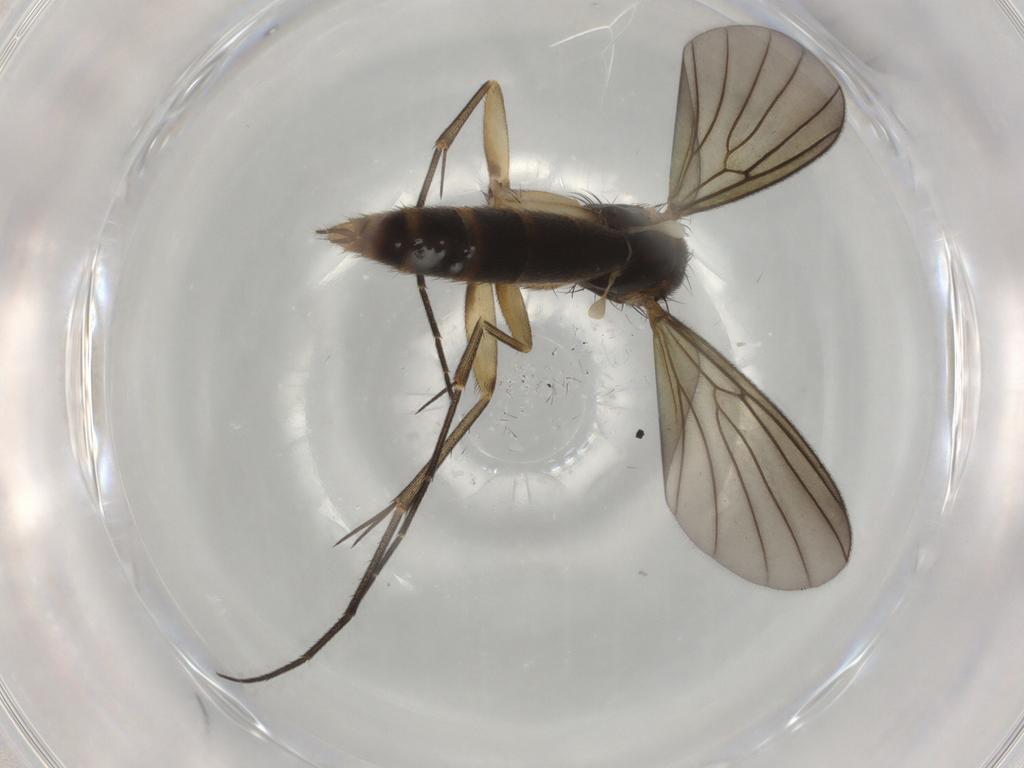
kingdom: Animalia
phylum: Arthropoda
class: Insecta
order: Diptera
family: Mycetophilidae
